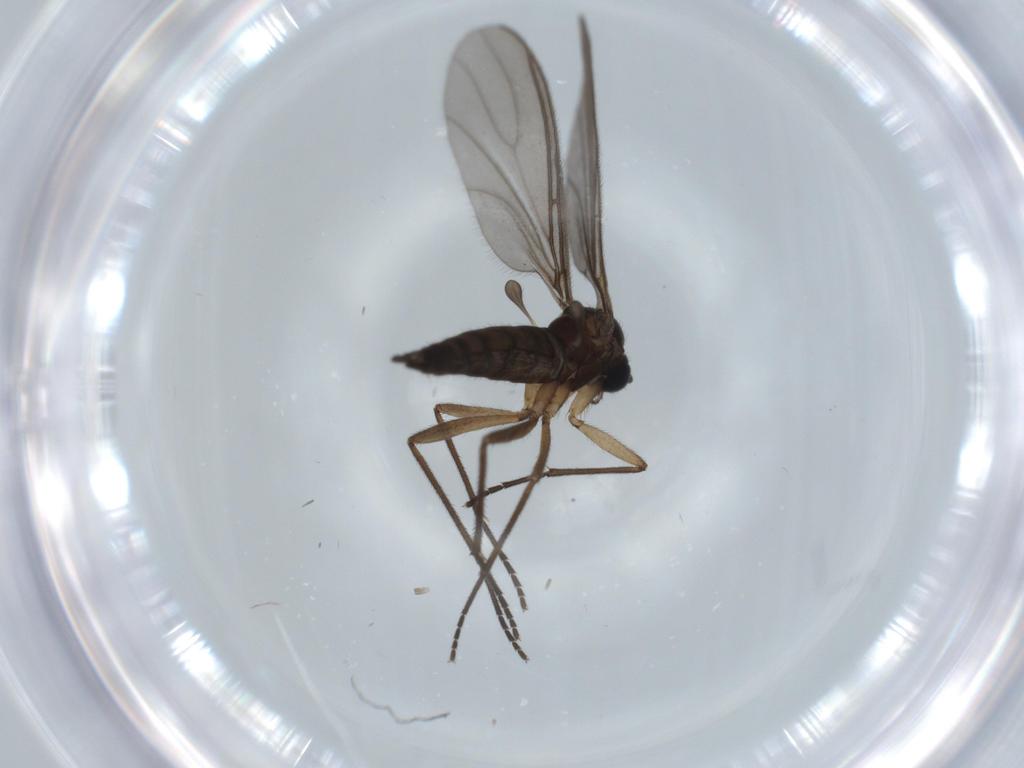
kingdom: Animalia
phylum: Arthropoda
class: Insecta
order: Diptera
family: Sciaridae
